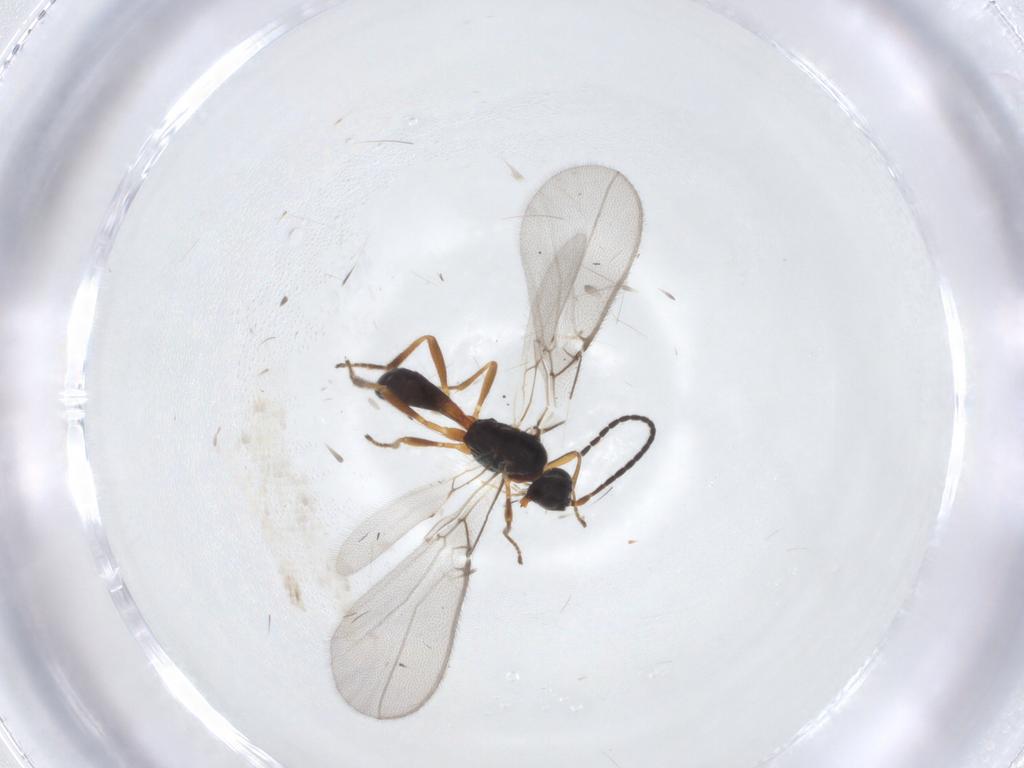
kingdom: Animalia
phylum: Arthropoda
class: Insecta
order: Hymenoptera
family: Braconidae
